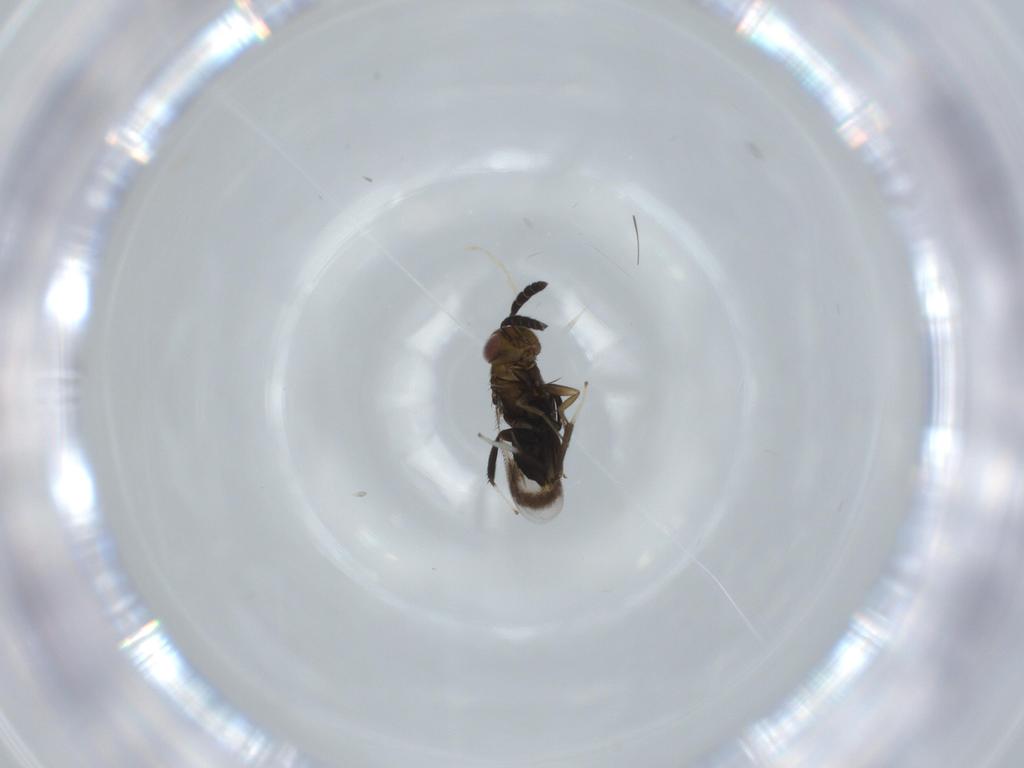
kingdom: Animalia
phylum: Arthropoda
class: Insecta
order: Hymenoptera
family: Aphelinidae
